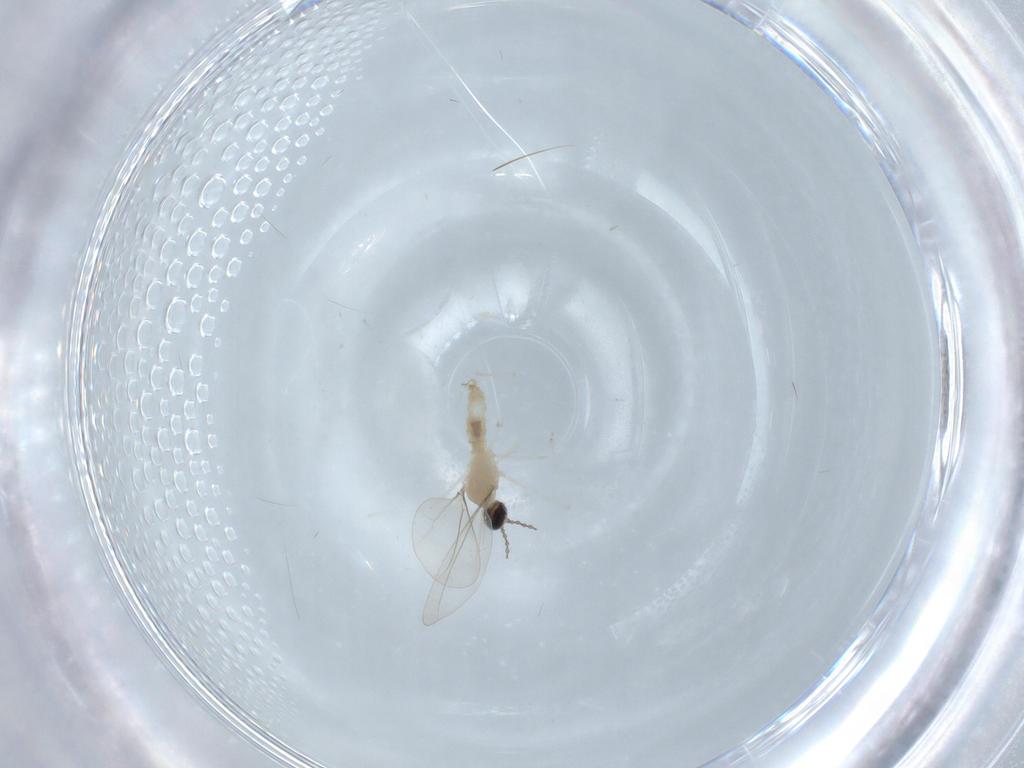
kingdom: Animalia
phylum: Arthropoda
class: Insecta
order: Diptera
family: Cecidomyiidae
